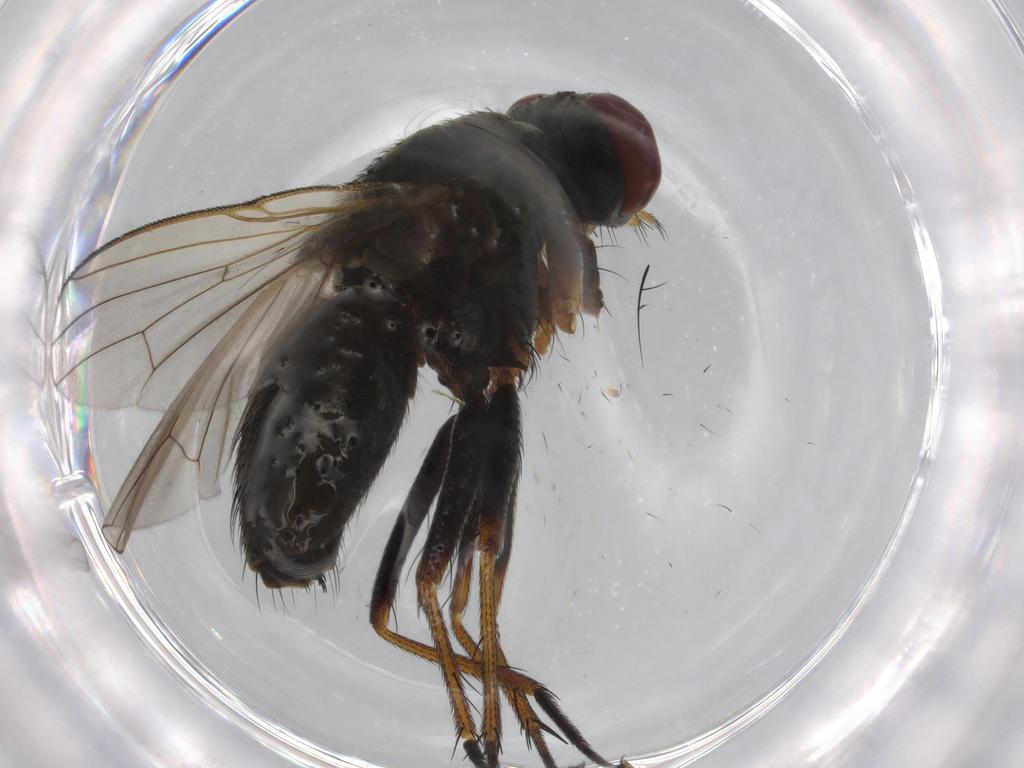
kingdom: Animalia
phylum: Arthropoda
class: Insecta
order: Diptera
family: Muscidae
